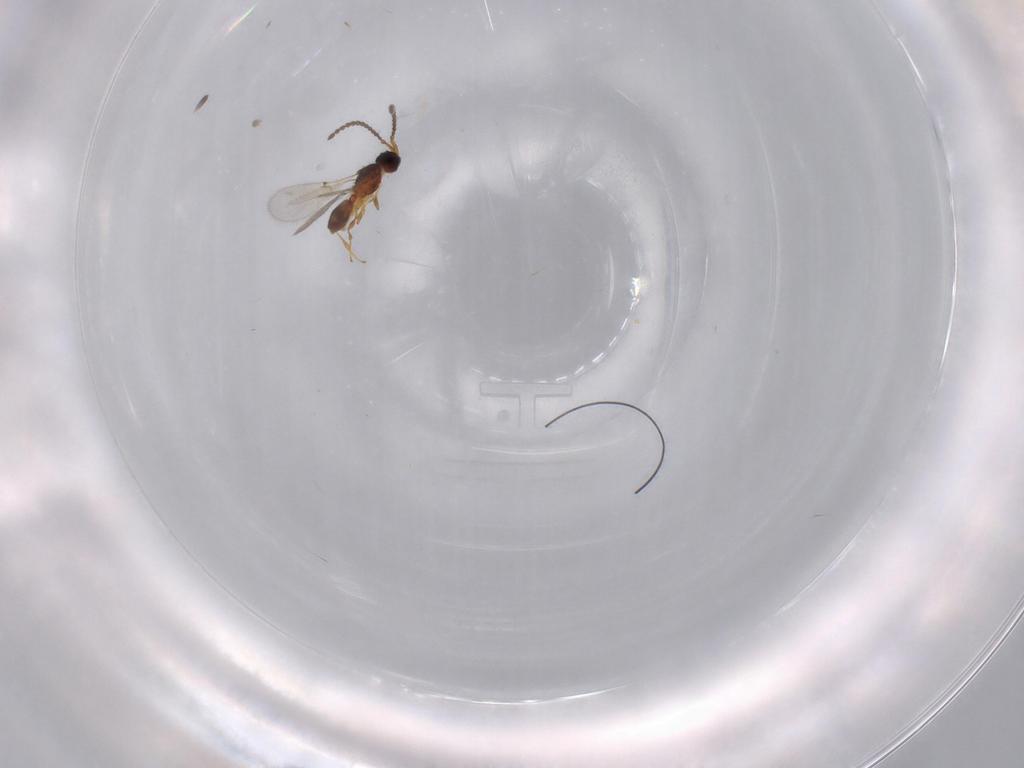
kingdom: Animalia
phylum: Arthropoda
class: Insecta
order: Hymenoptera
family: Diapriidae
